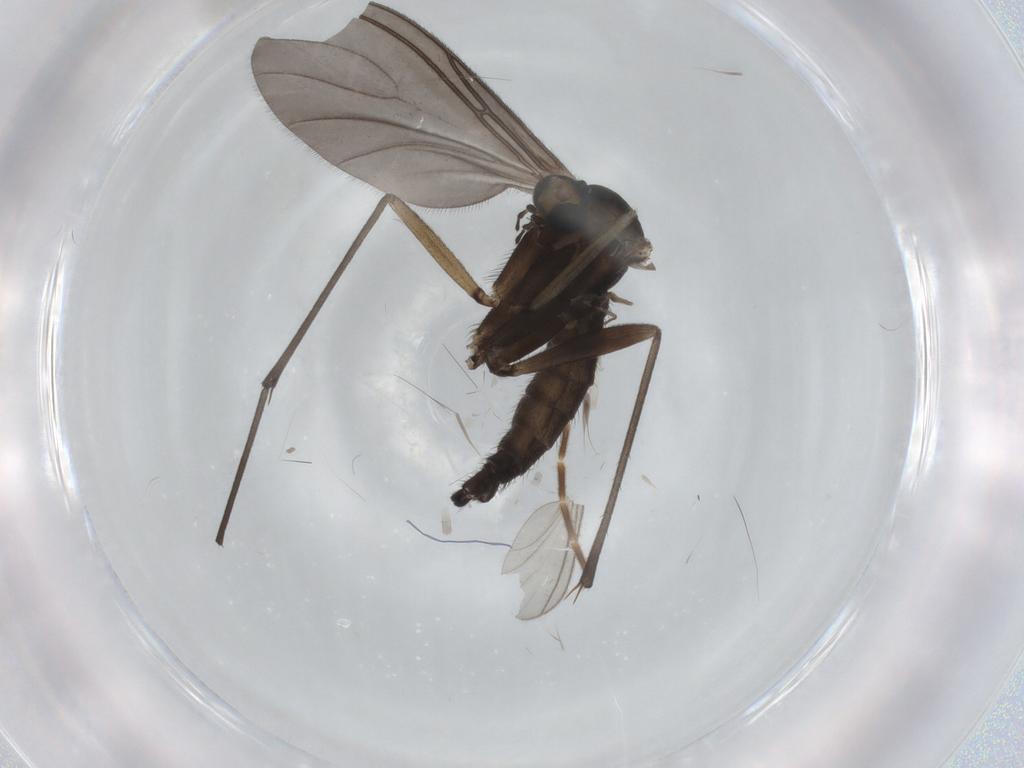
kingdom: Animalia
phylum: Arthropoda
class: Insecta
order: Diptera
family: Sciaridae
